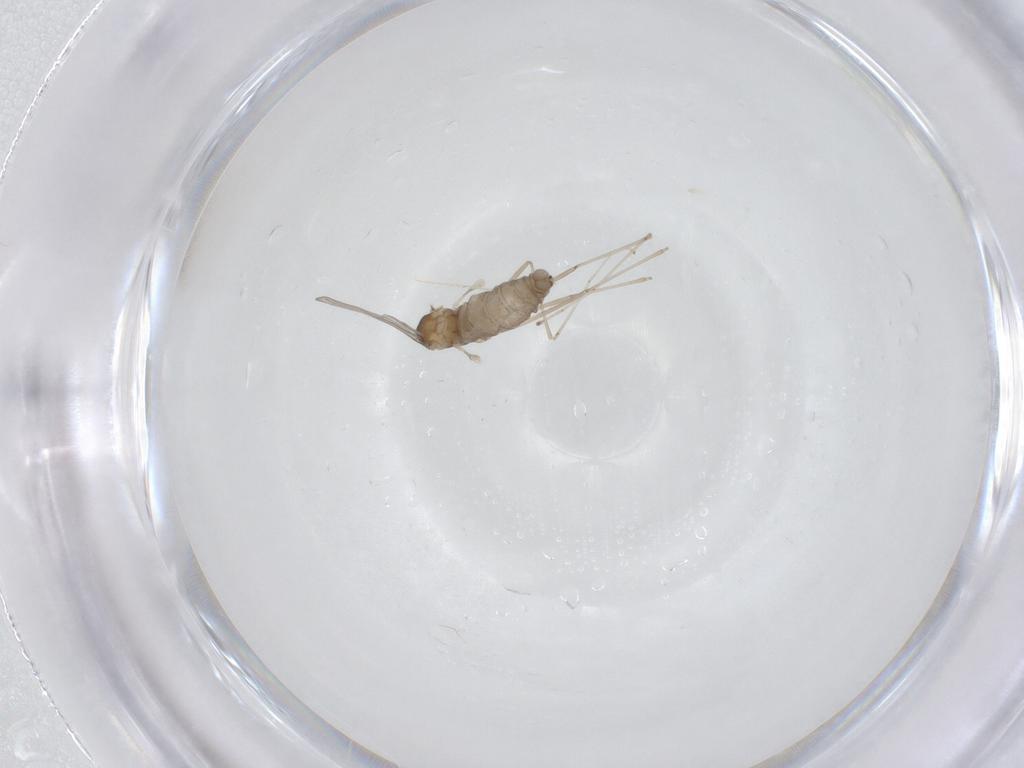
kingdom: Animalia
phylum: Arthropoda
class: Insecta
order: Diptera
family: Cecidomyiidae
